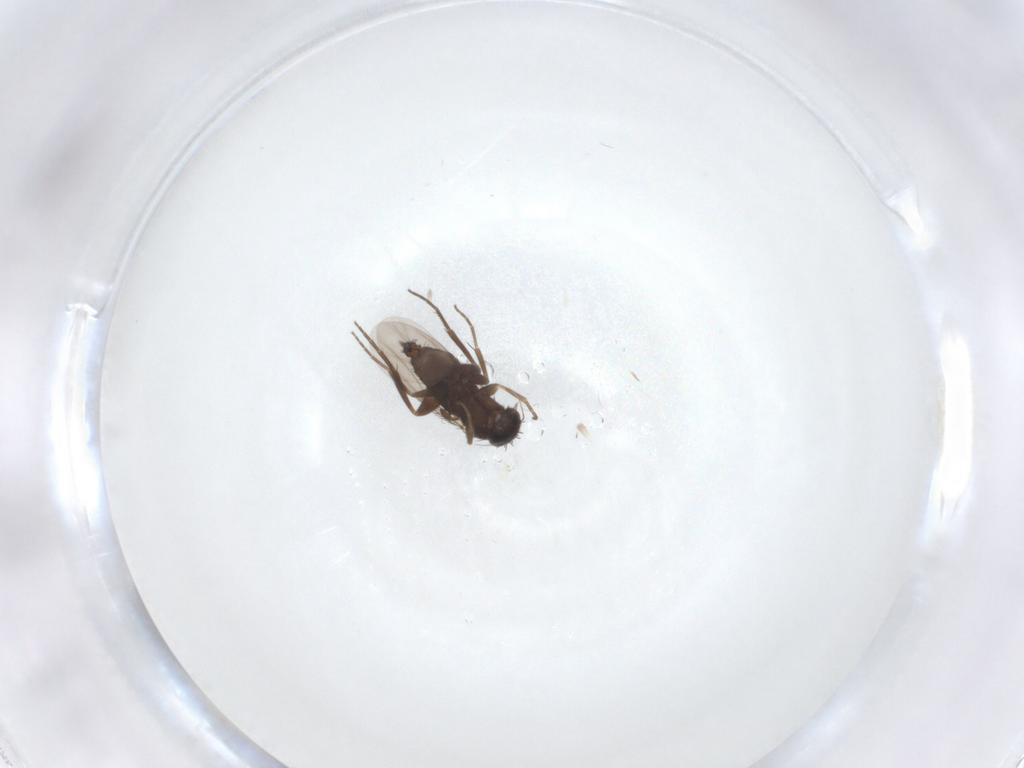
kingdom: Animalia
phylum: Arthropoda
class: Insecta
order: Diptera
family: Phoridae
